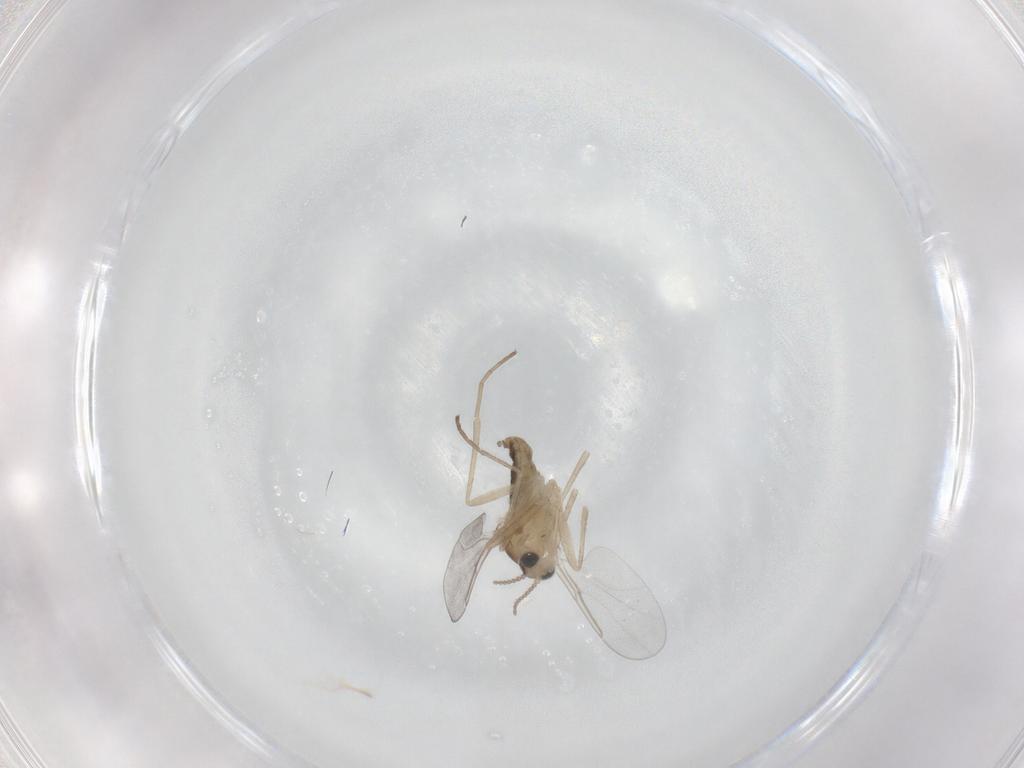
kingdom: Animalia
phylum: Arthropoda
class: Insecta
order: Diptera
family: Cecidomyiidae
